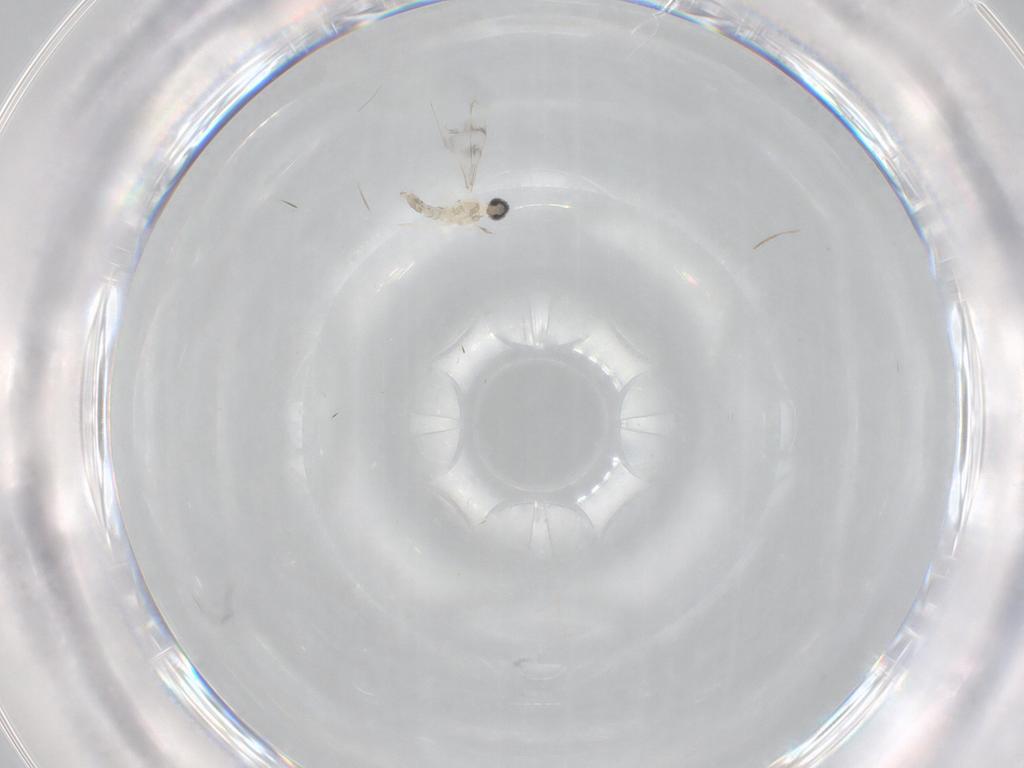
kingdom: Animalia
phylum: Arthropoda
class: Insecta
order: Diptera
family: Cecidomyiidae
